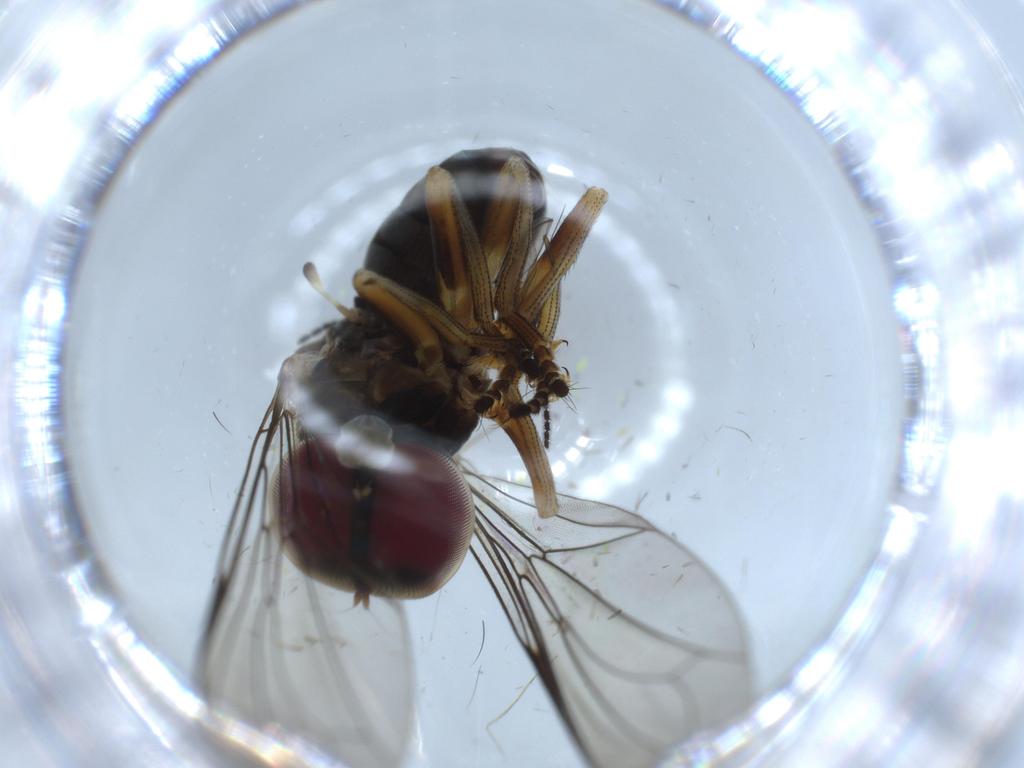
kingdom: Animalia
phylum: Arthropoda
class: Insecta
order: Diptera
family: Pipunculidae
